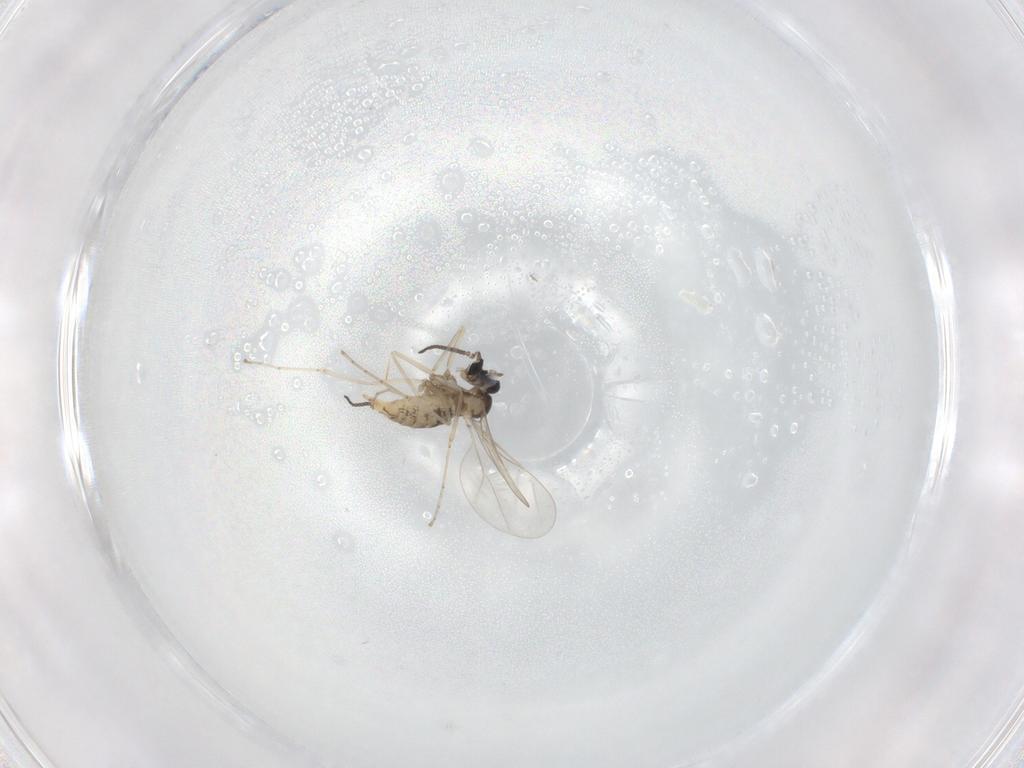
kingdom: Animalia
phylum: Arthropoda
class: Insecta
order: Diptera
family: Cecidomyiidae
